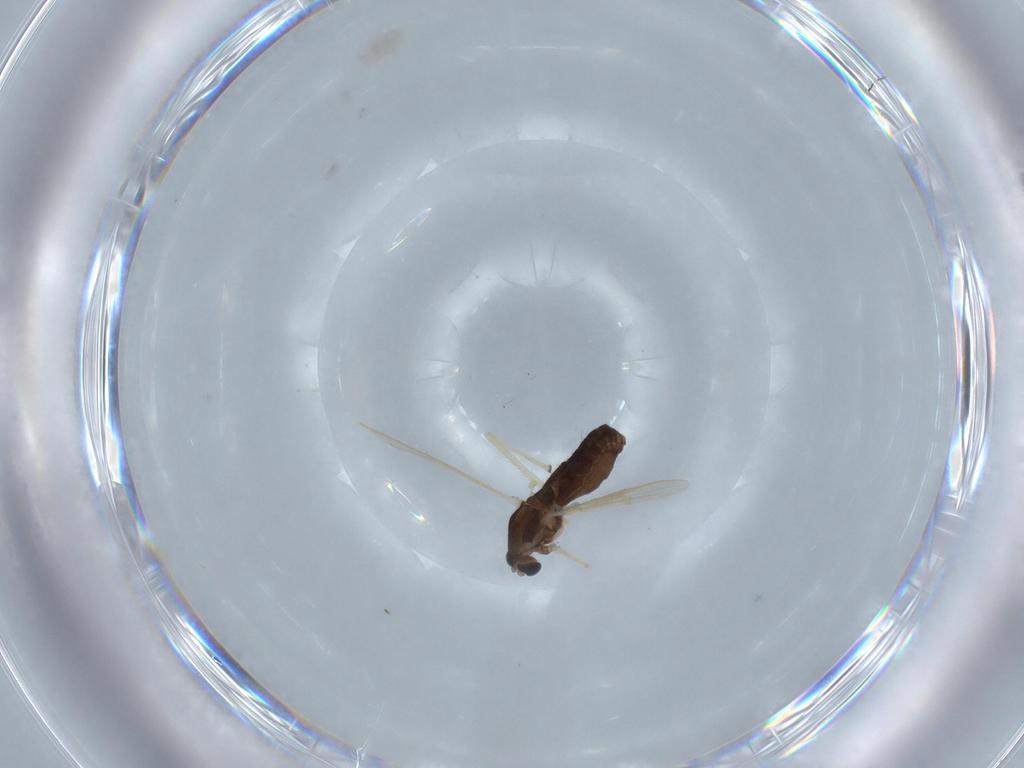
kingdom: Animalia
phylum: Arthropoda
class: Insecta
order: Diptera
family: Chironomidae
